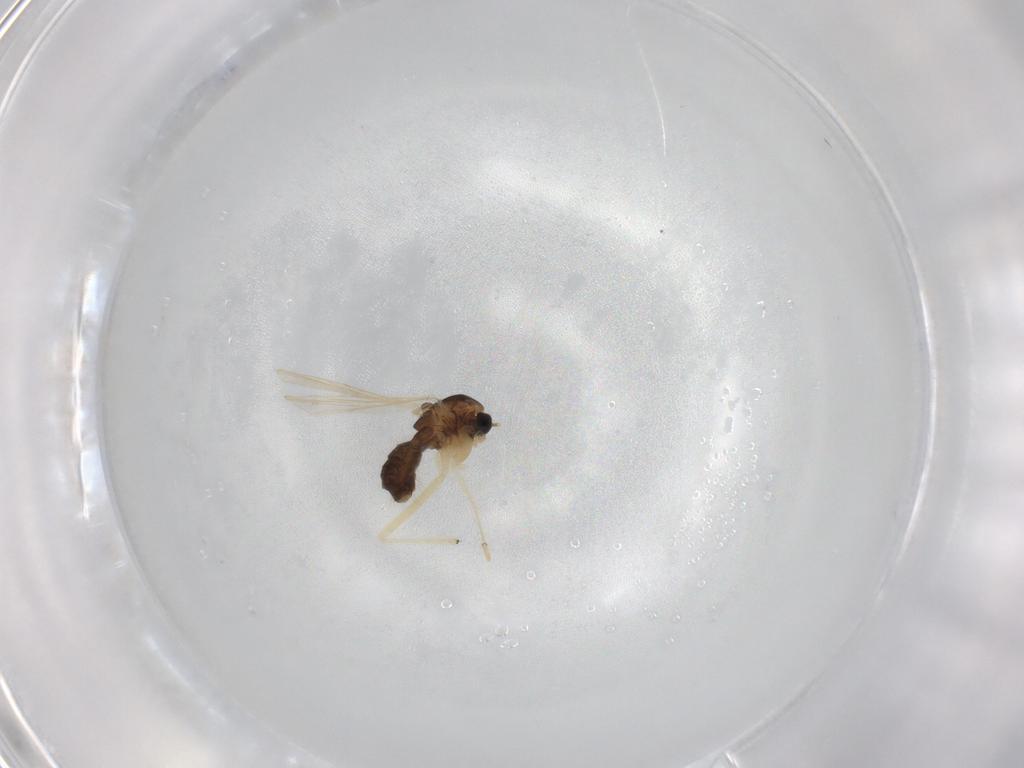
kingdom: Animalia
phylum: Arthropoda
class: Insecta
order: Diptera
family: Chironomidae
